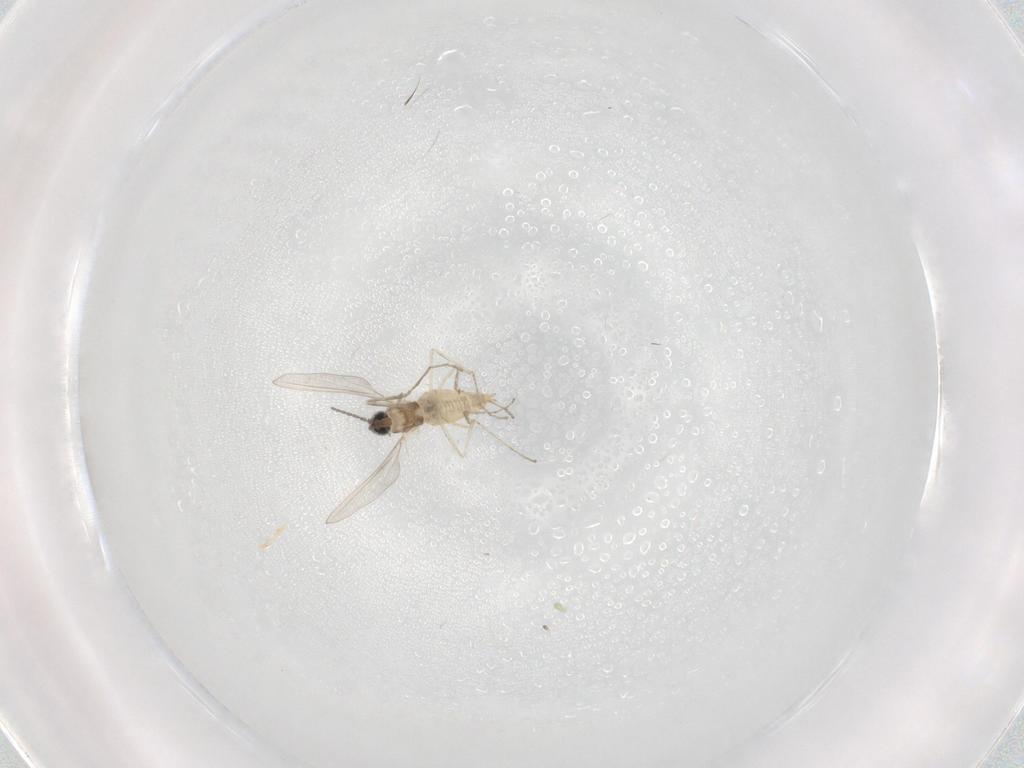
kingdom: Animalia
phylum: Arthropoda
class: Insecta
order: Diptera
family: Cecidomyiidae
